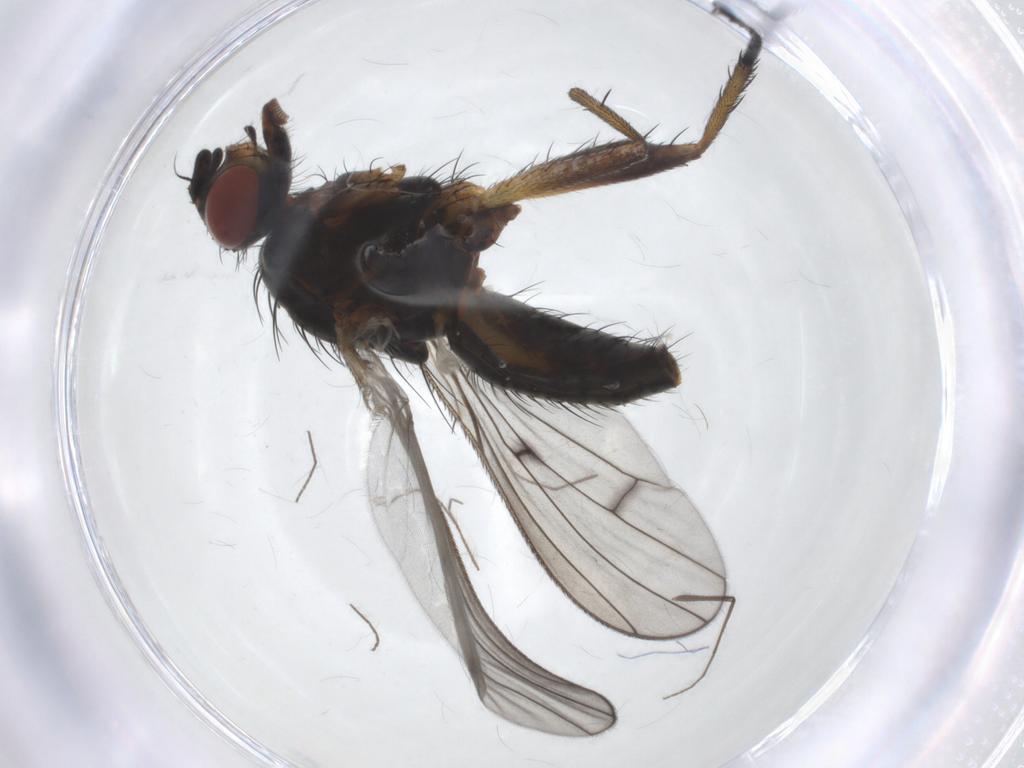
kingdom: Animalia
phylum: Arthropoda
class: Insecta
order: Diptera
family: Anthomyiidae
